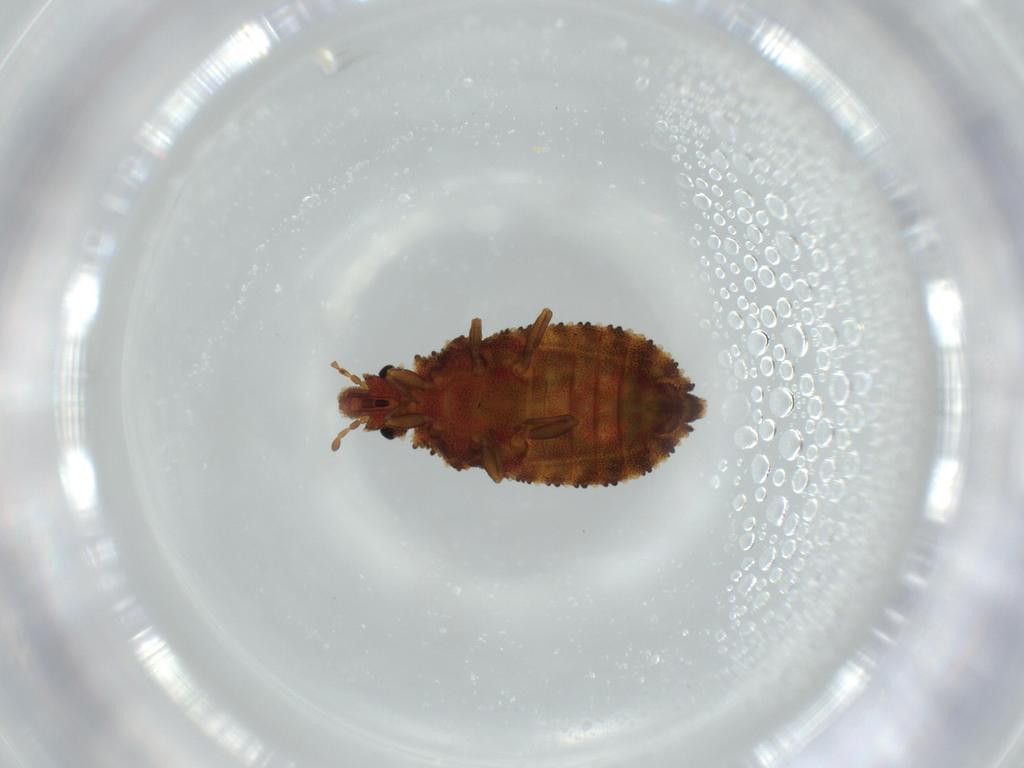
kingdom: Animalia
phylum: Arthropoda
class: Insecta
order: Hemiptera
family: Aradidae
